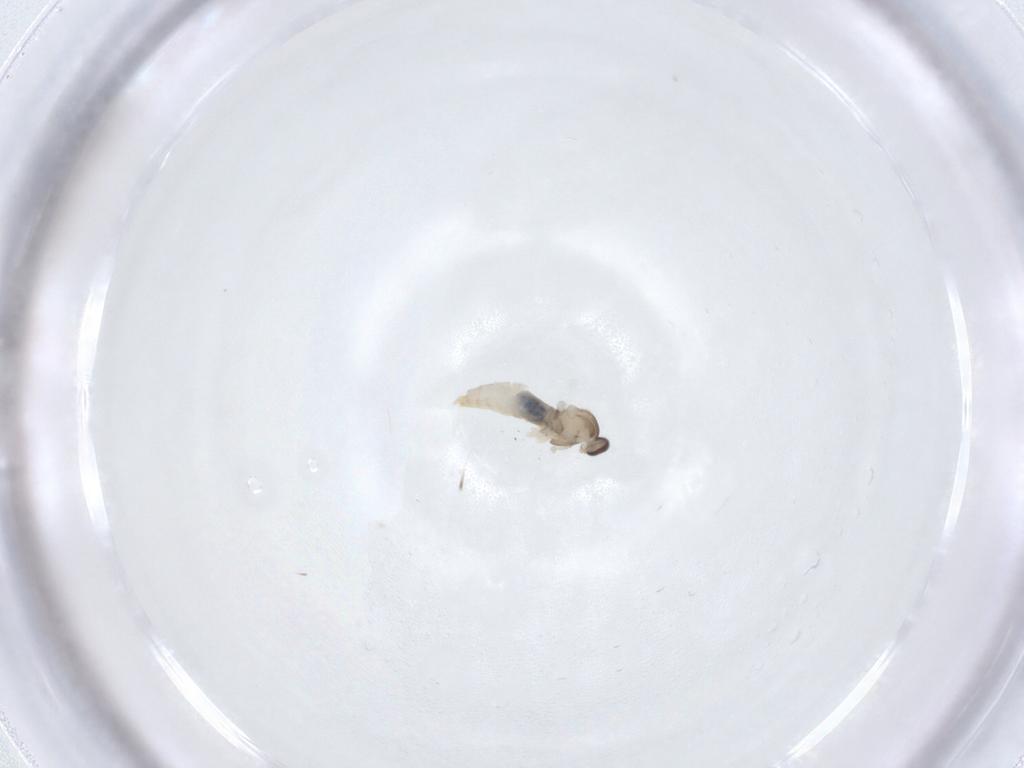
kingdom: Animalia
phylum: Arthropoda
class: Insecta
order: Diptera
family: Cecidomyiidae
